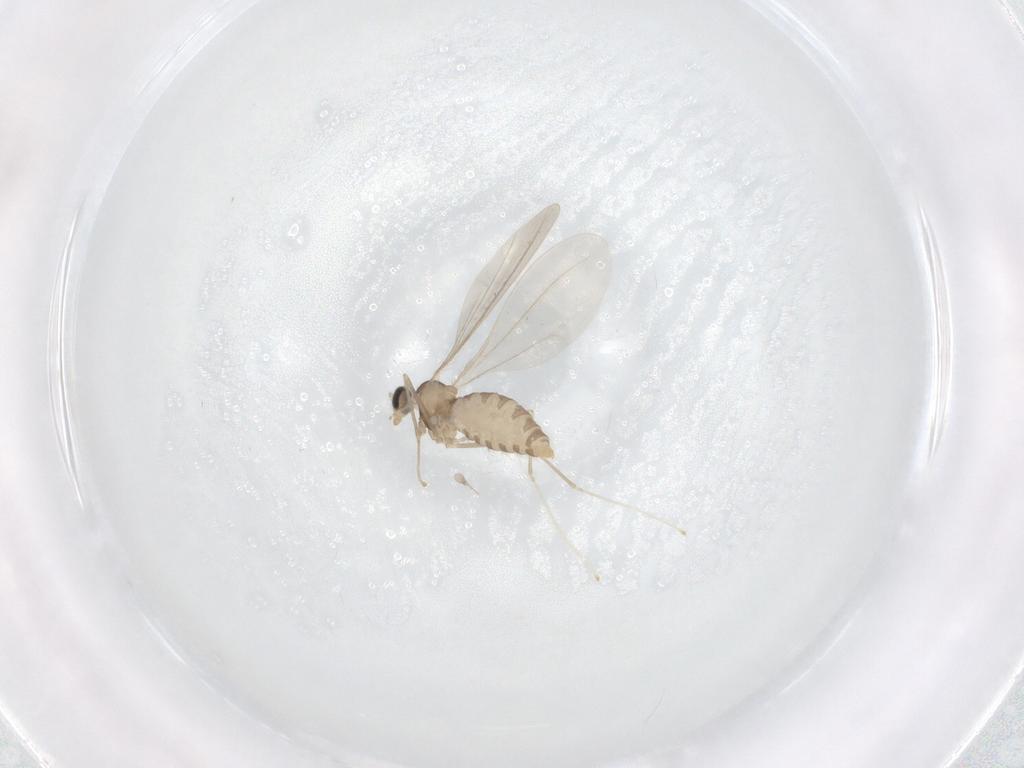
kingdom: Animalia
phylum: Arthropoda
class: Insecta
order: Diptera
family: Cecidomyiidae
